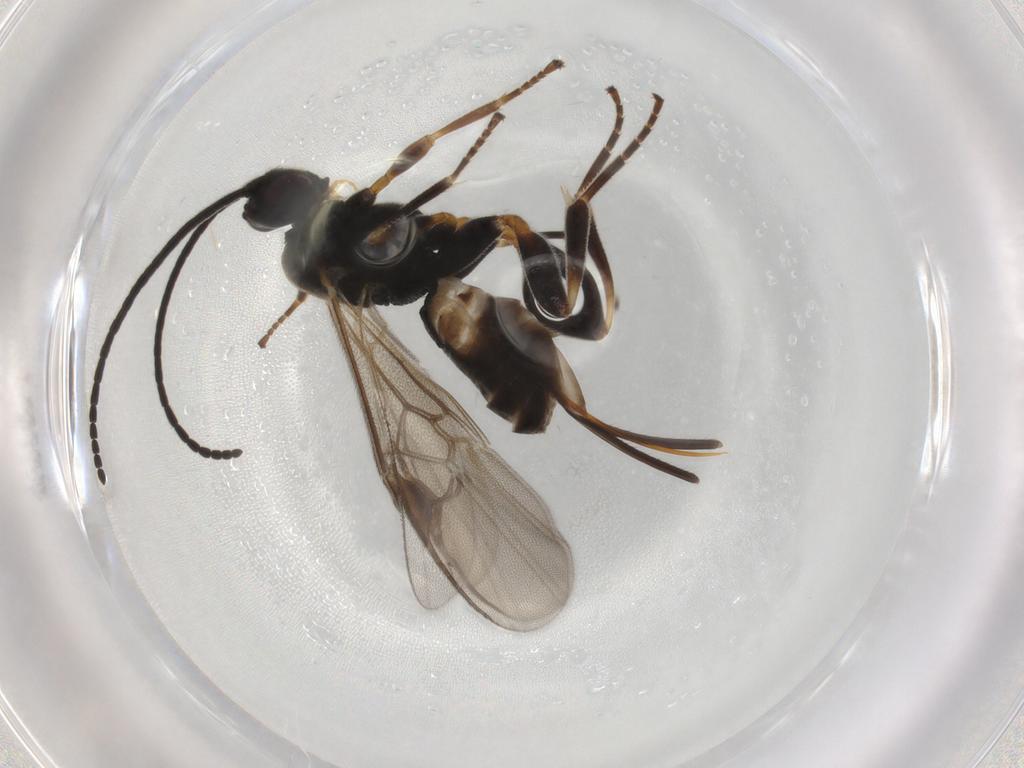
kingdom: Animalia
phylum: Arthropoda
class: Insecta
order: Hymenoptera
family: Braconidae
